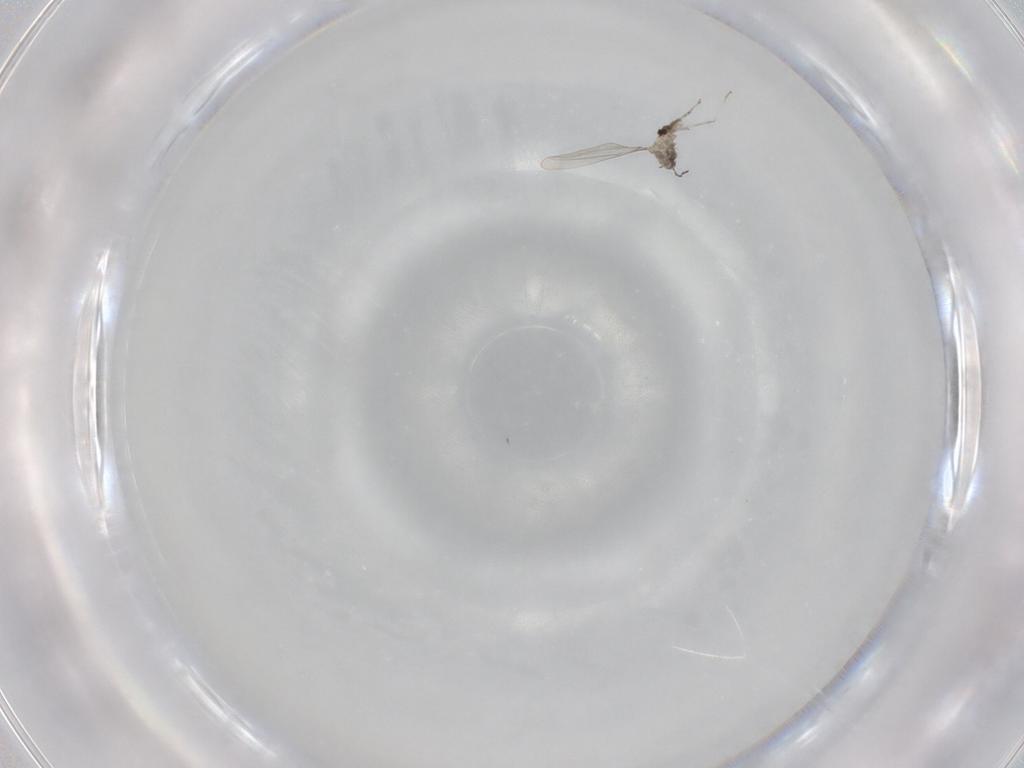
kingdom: Animalia
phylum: Arthropoda
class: Insecta
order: Diptera
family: Cecidomyiidae
